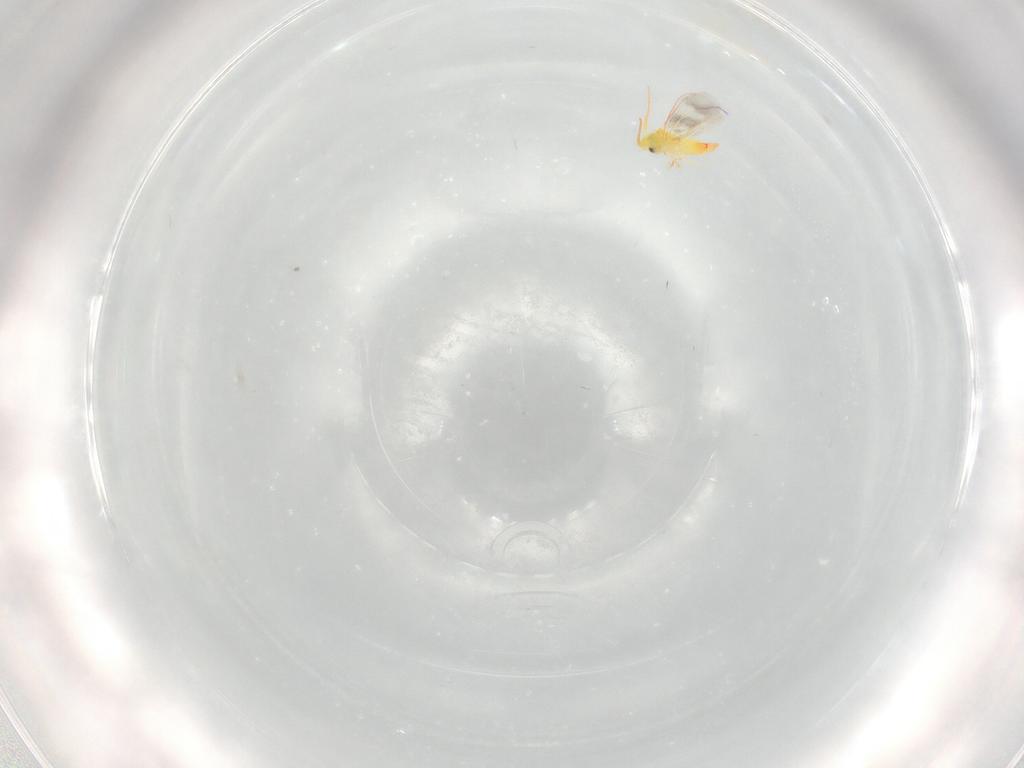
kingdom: Animalia
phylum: Arthropoda
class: Insecta
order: Hemiptera
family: Aleyrodidae
